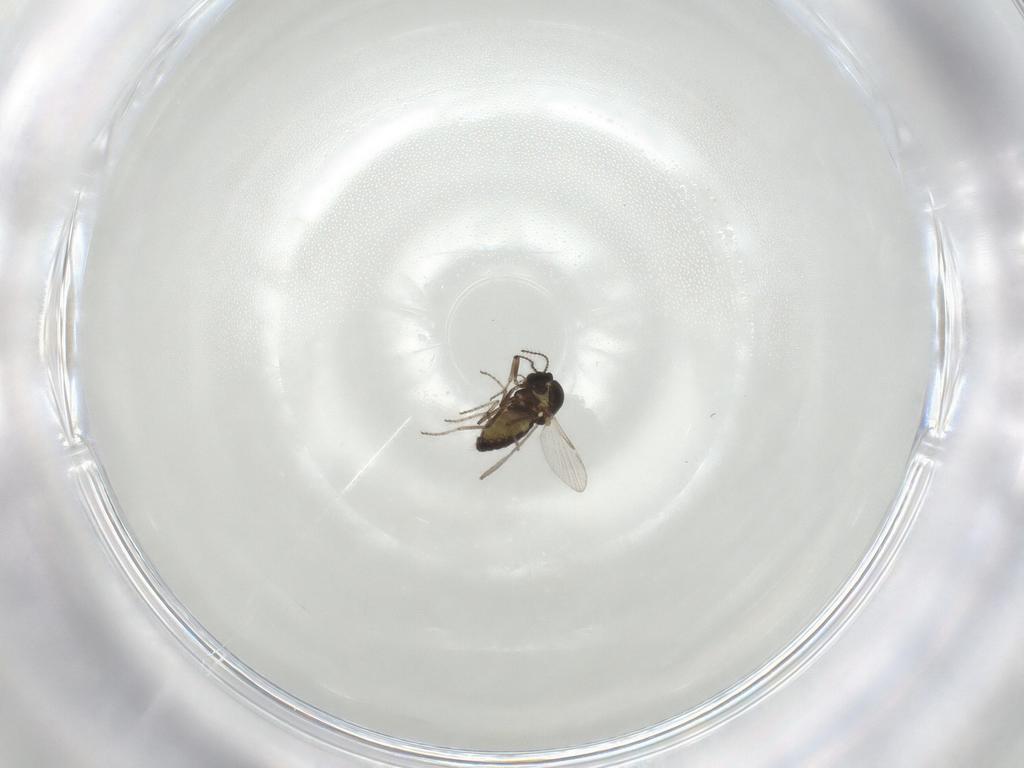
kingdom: Animalia
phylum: Arthropoda
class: Insecta
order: Diptera
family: Ceratopogonidae
